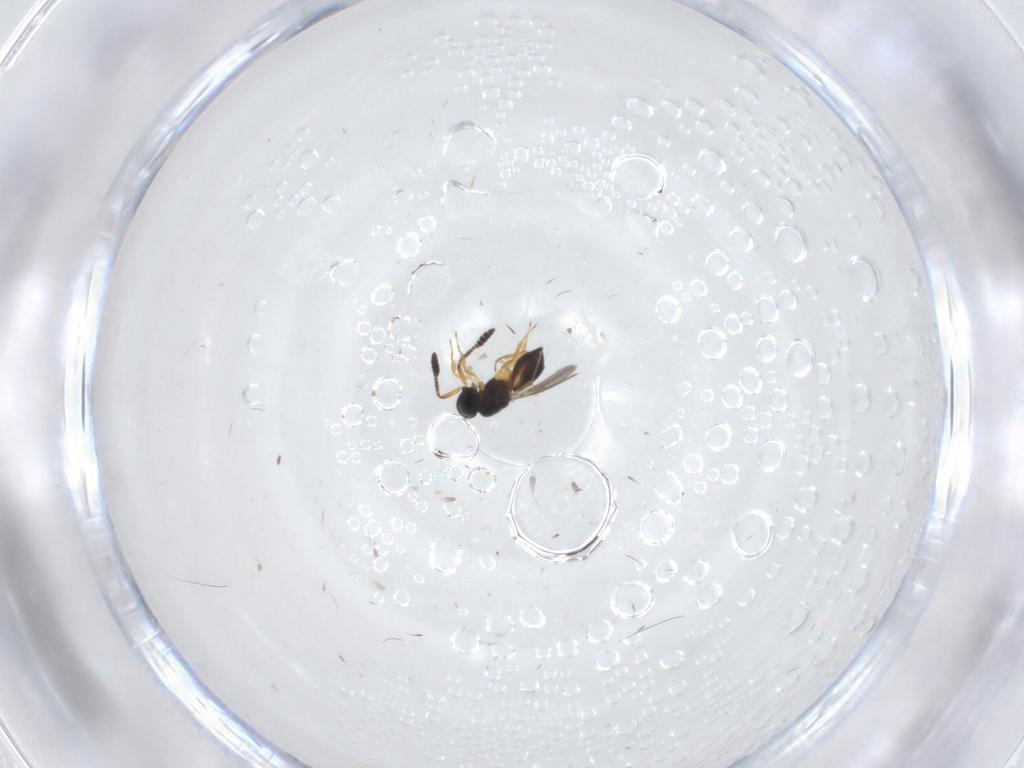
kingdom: Animalia
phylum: Arthropoda
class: Insecta
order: Hymenoptera
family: Scelionidae
